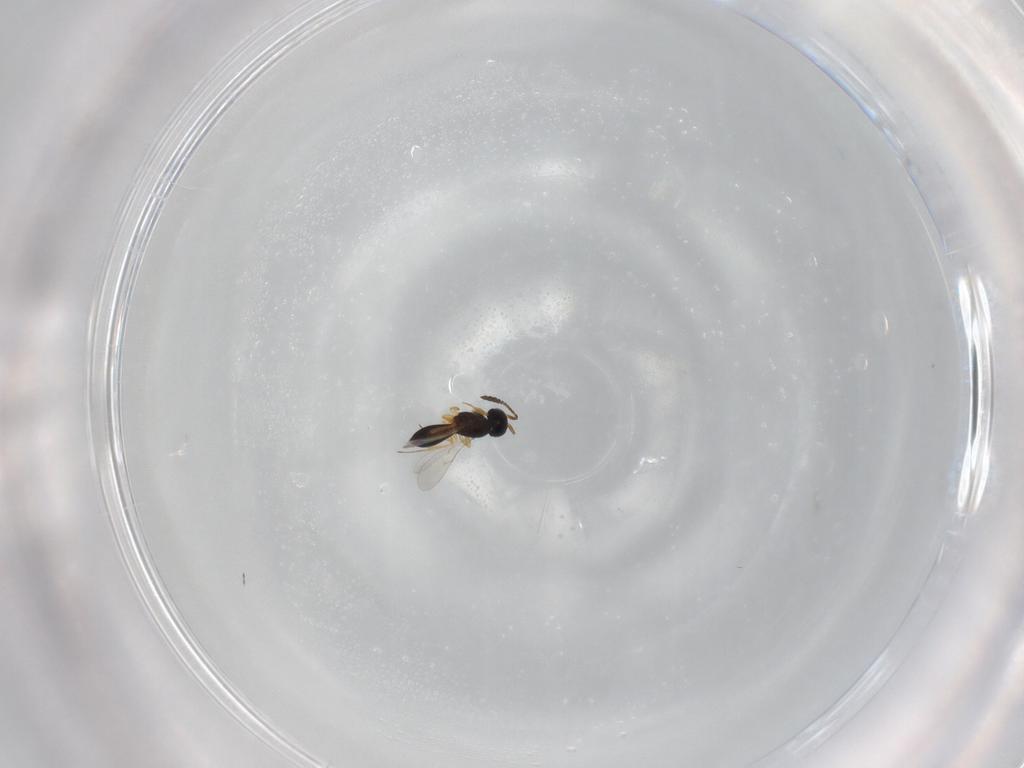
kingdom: Animalia
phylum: Arthropoda
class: Insecta
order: Hymenoptera
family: Scelionidae
